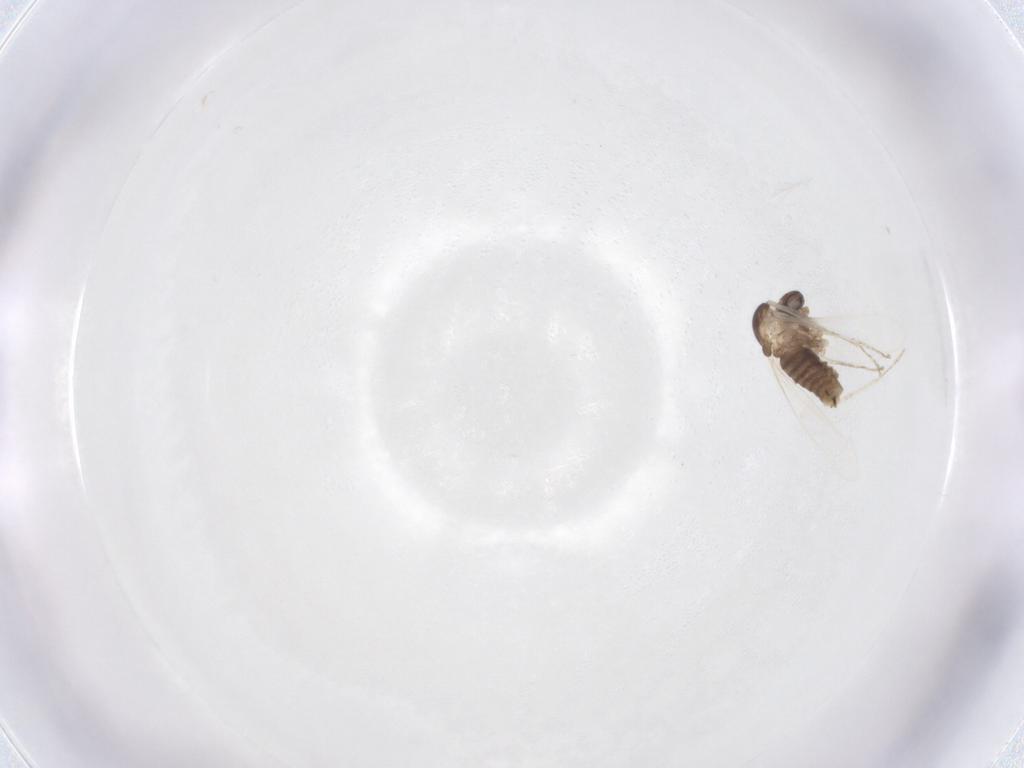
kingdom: Animalia
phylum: Arthropoda
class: Insecta
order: Diptera
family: Cecidomyiidae
